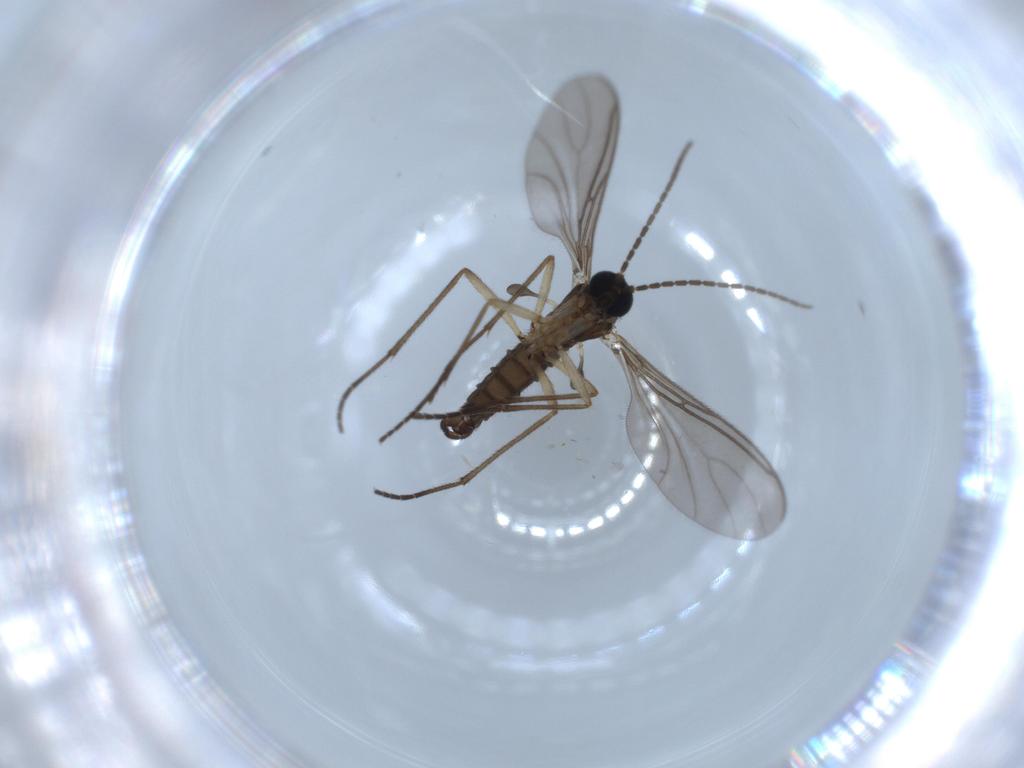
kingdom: Animalia
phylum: Arthropoda
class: Insecta
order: Diptera
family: Sciaridae
